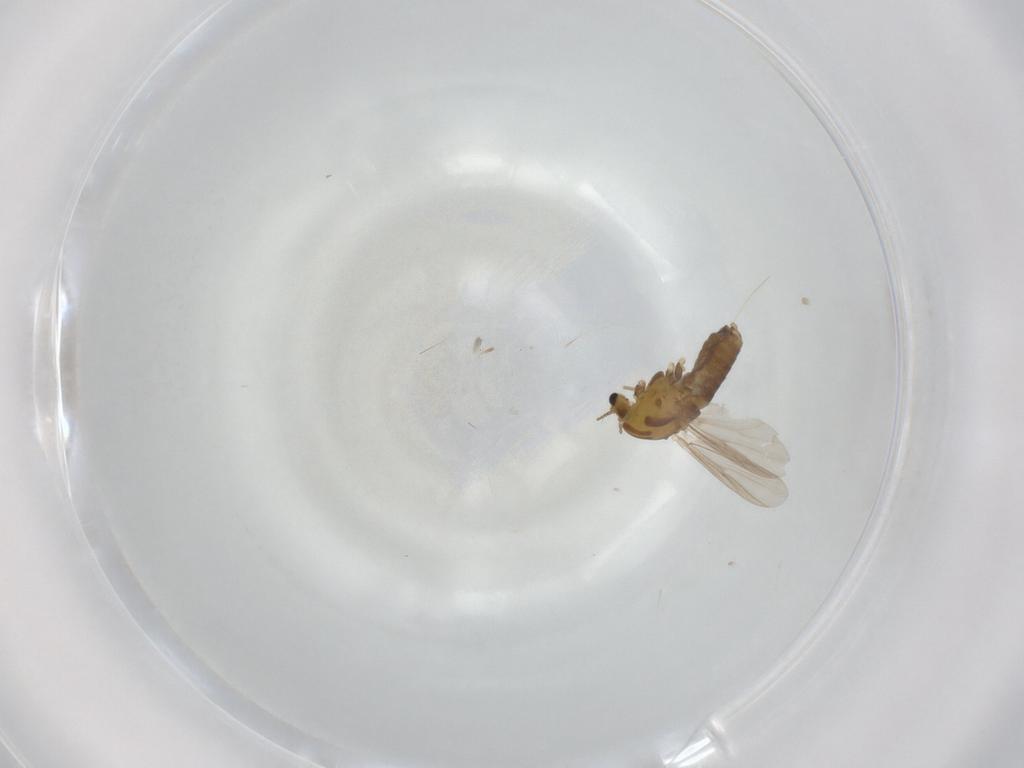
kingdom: Animalia
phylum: Arthropoda
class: Insecta
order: Diptera
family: Chironomidae
